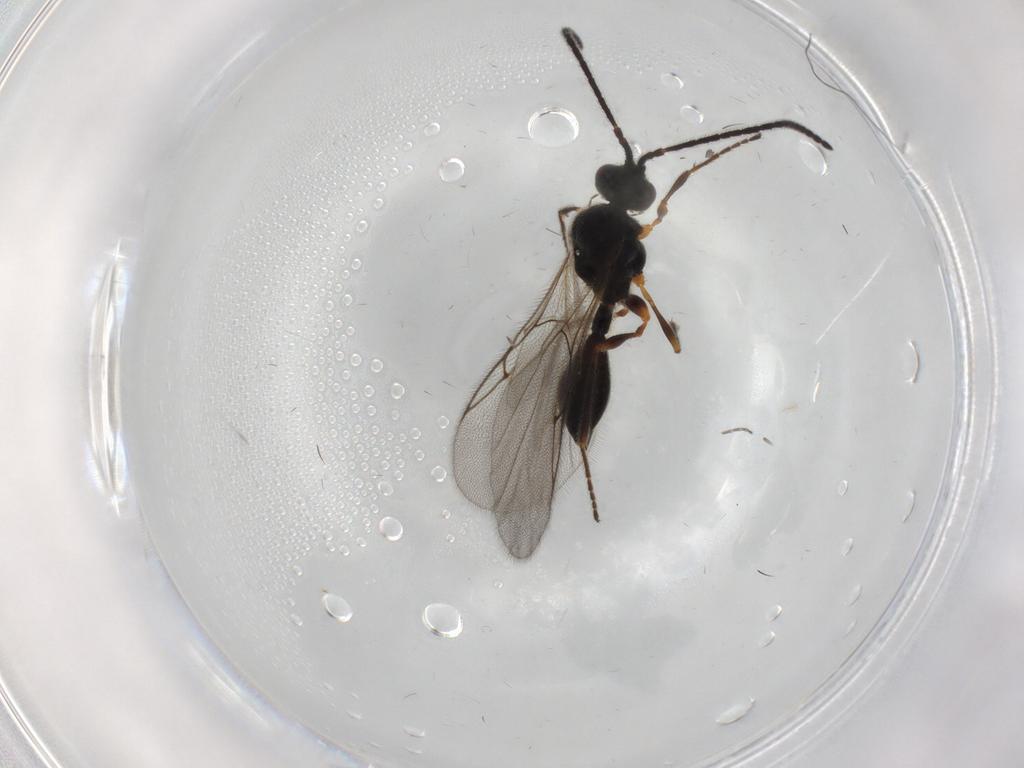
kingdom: Animalia
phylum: Arthropoda
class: Insecta
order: Hymenoptera
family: Diapriidae
